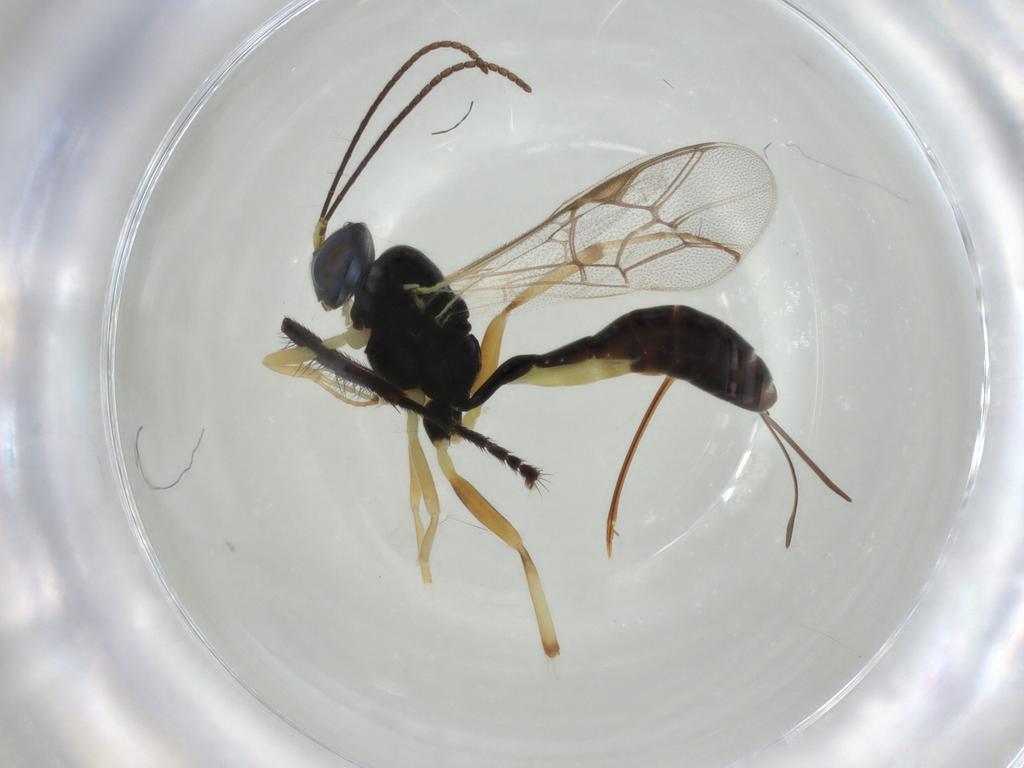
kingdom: Animalia
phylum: Arthropoda
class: Insecta
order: Hymenoptera
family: Ichneumonidae
